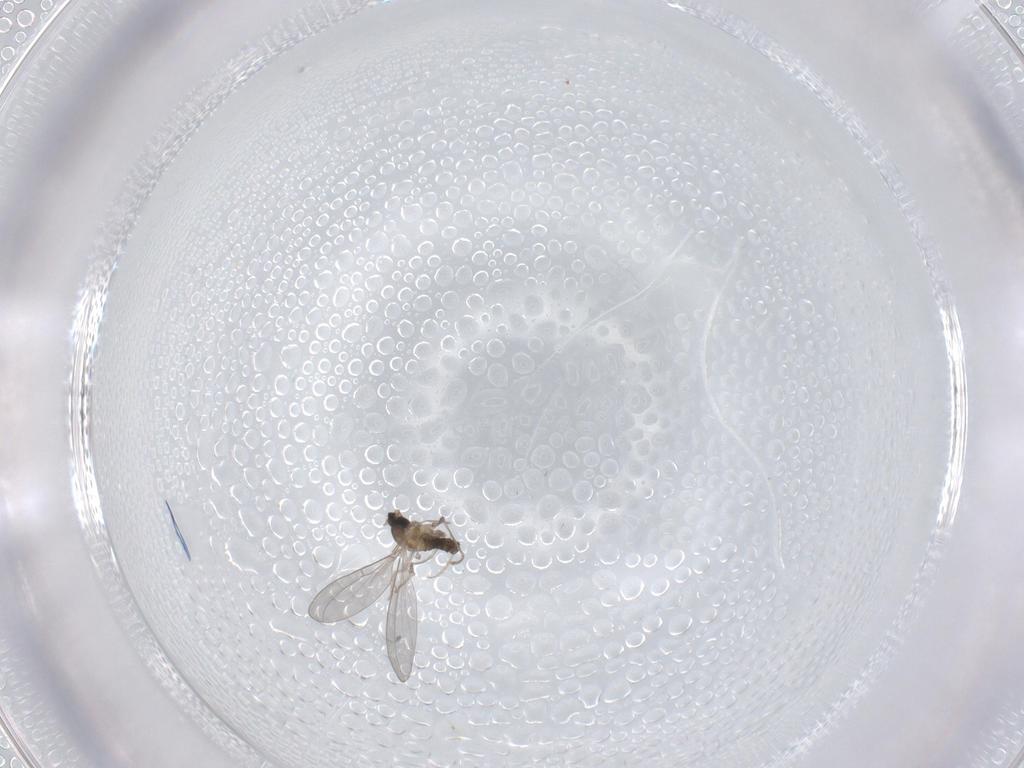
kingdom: Animalia
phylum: Arthropoda
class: Insecta
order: Diptera
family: Cecidomyiidae
